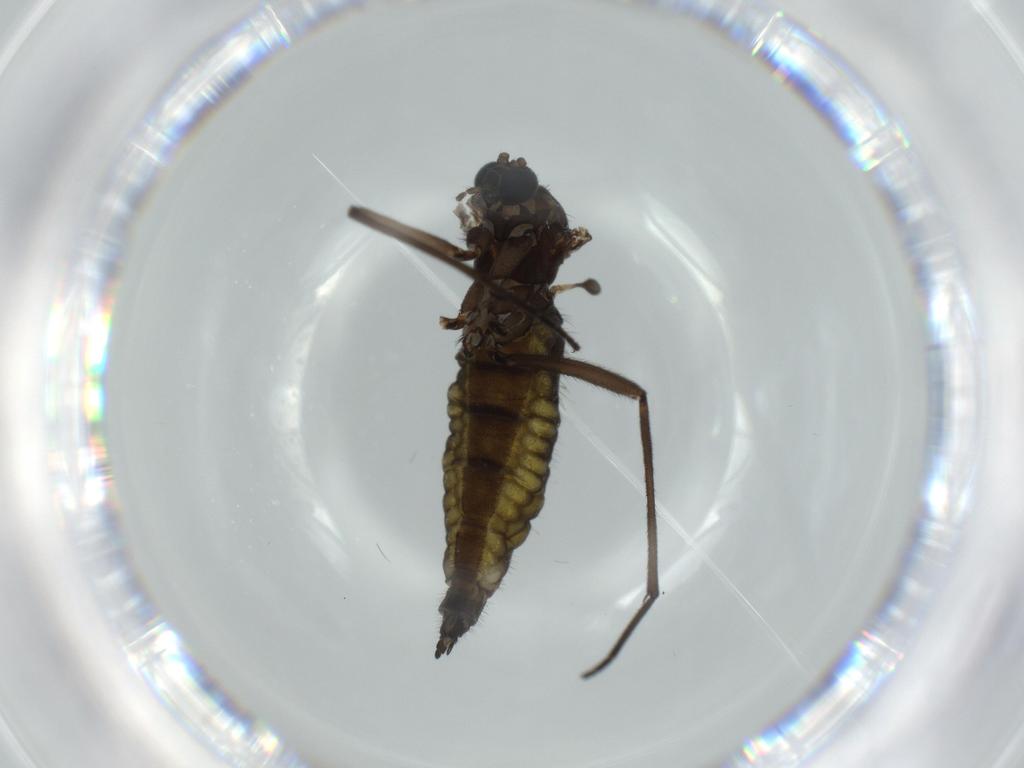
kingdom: Animalia
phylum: Arthropoda
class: Insecta
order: Diptera
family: Sciaridae
